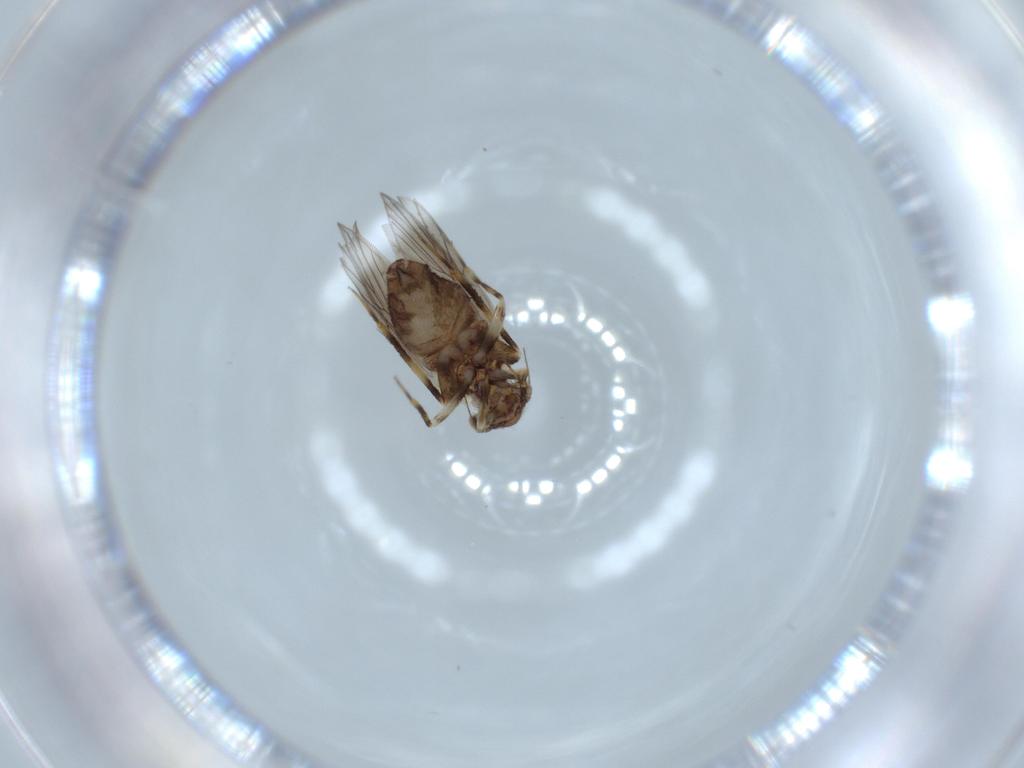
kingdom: Animalia
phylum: Arthropoda
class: Insecta
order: Psocodea
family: Lepidopsocidae
